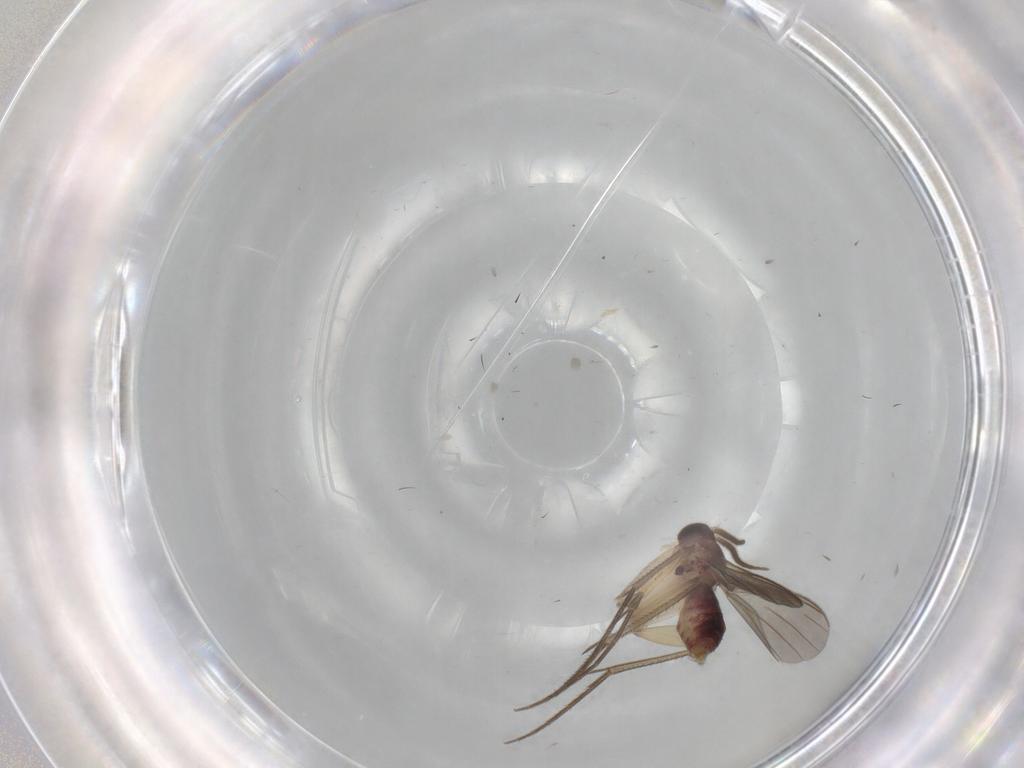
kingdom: Animalia
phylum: Arthropoda
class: Insecta
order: Diptera
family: Mycetophilidae
